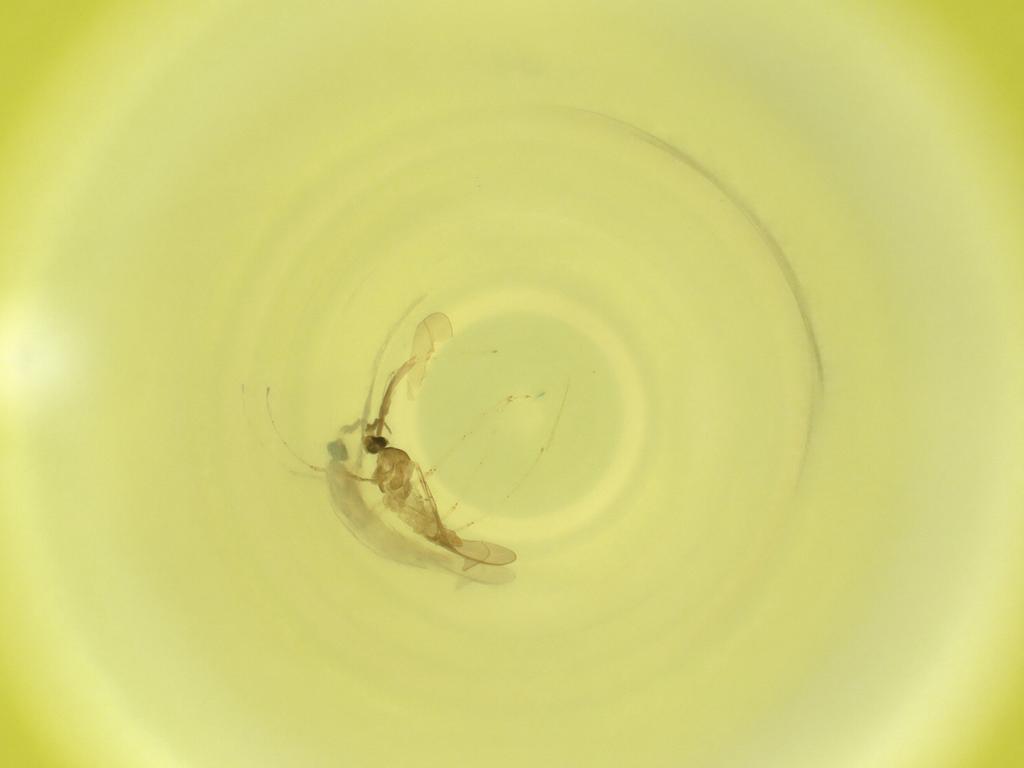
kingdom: Animalia
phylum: Arthropoda
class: Insecta
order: Diptera
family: Cecidomyiidae
